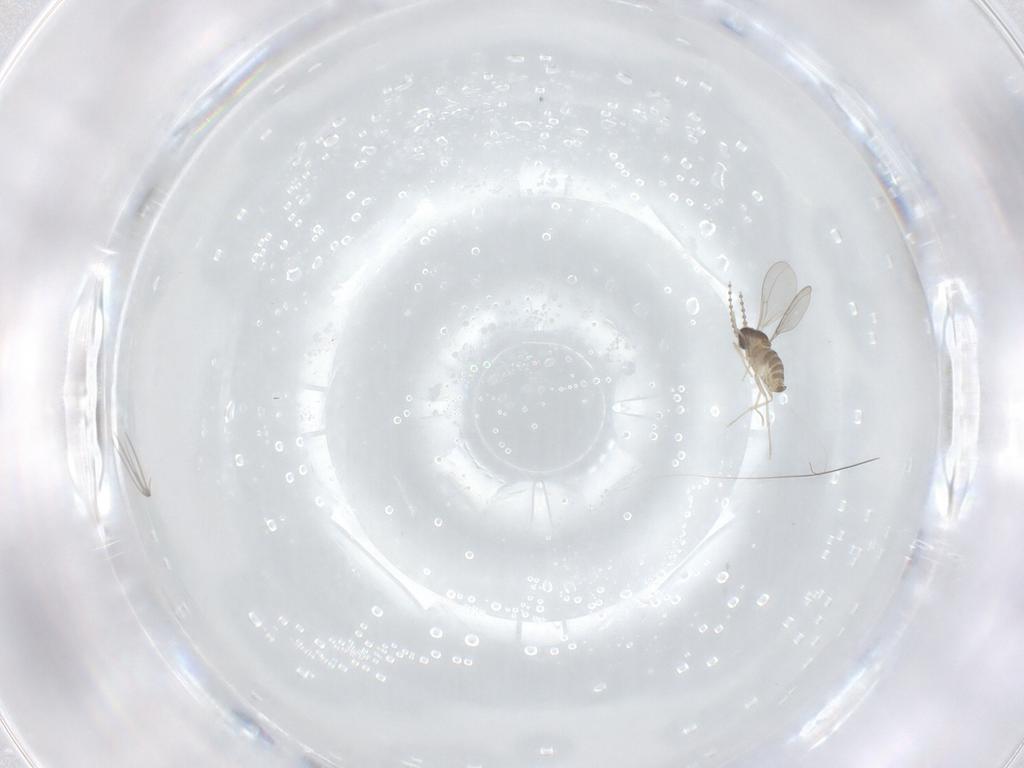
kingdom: Animalia
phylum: Arthropoda
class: Insecta
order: Diptera
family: Cecidomyiidae
